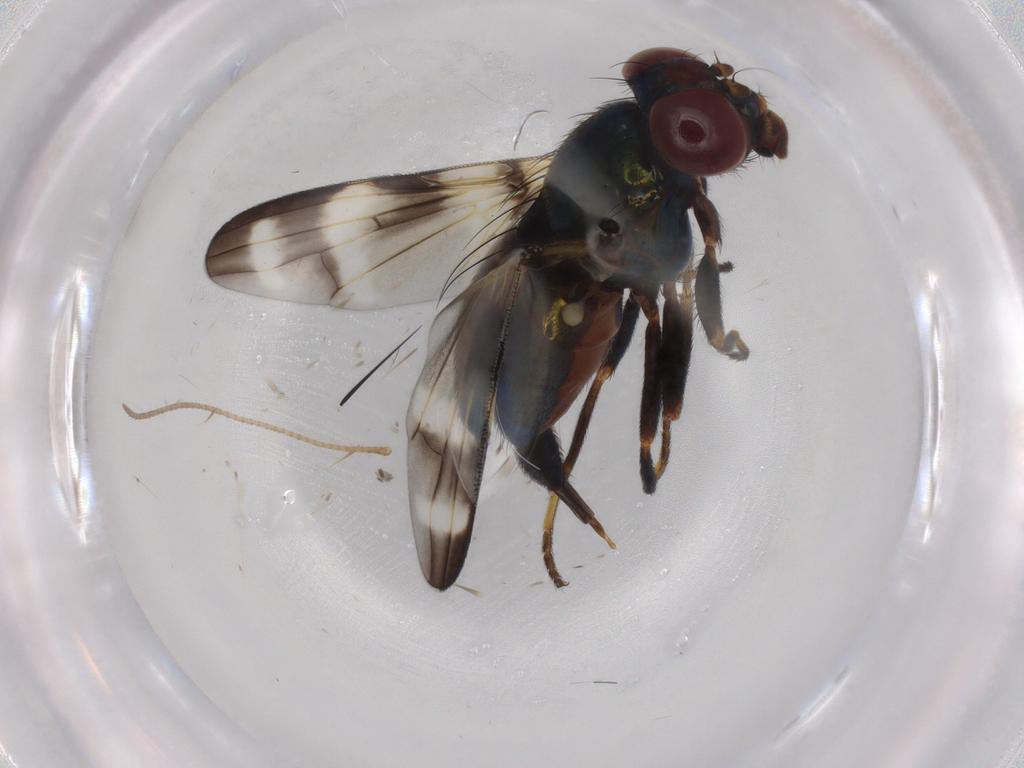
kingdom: Animalia
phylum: Arthropoda
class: Insecta
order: Diptera
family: Ulidiidae
